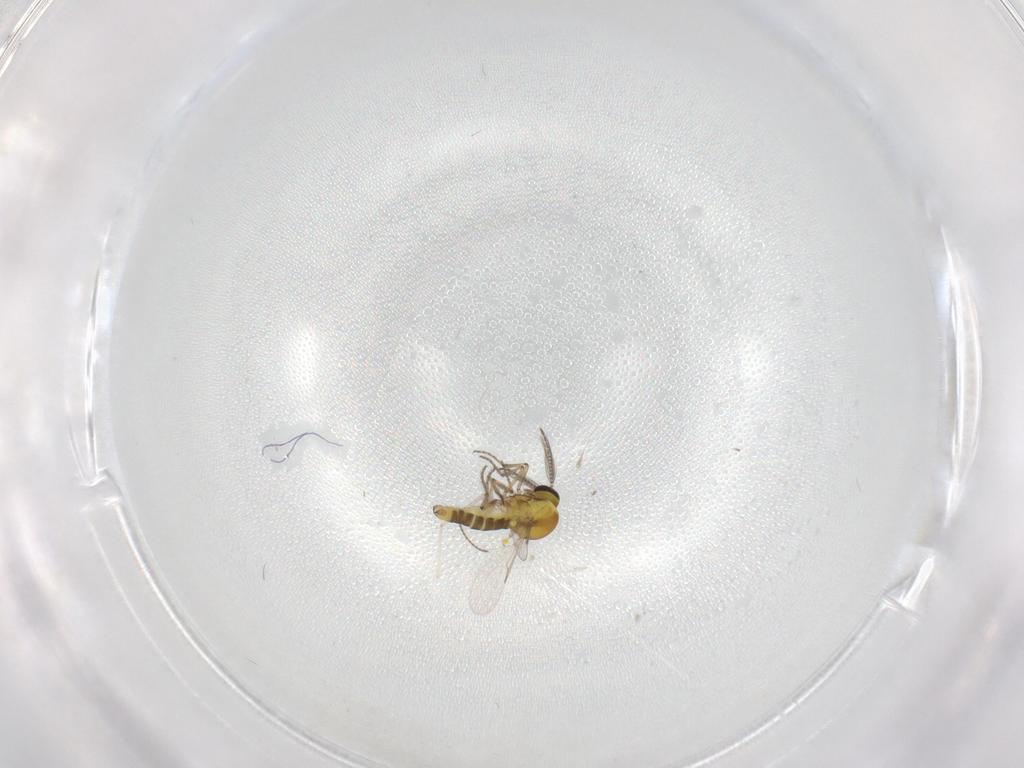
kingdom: Animalia
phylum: Arthropoda
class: Insecta
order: Diptera
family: Ceratopogonidae
